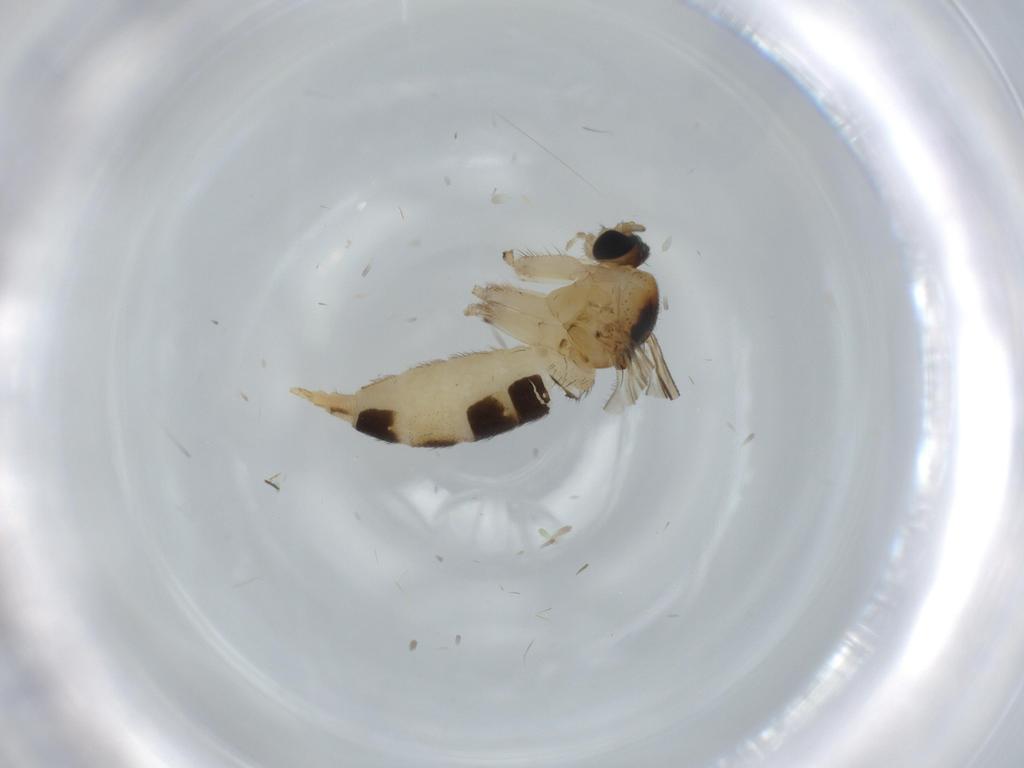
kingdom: Animalia
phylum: Arthropoda
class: Insecta
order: Diptera
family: Sciaridae
